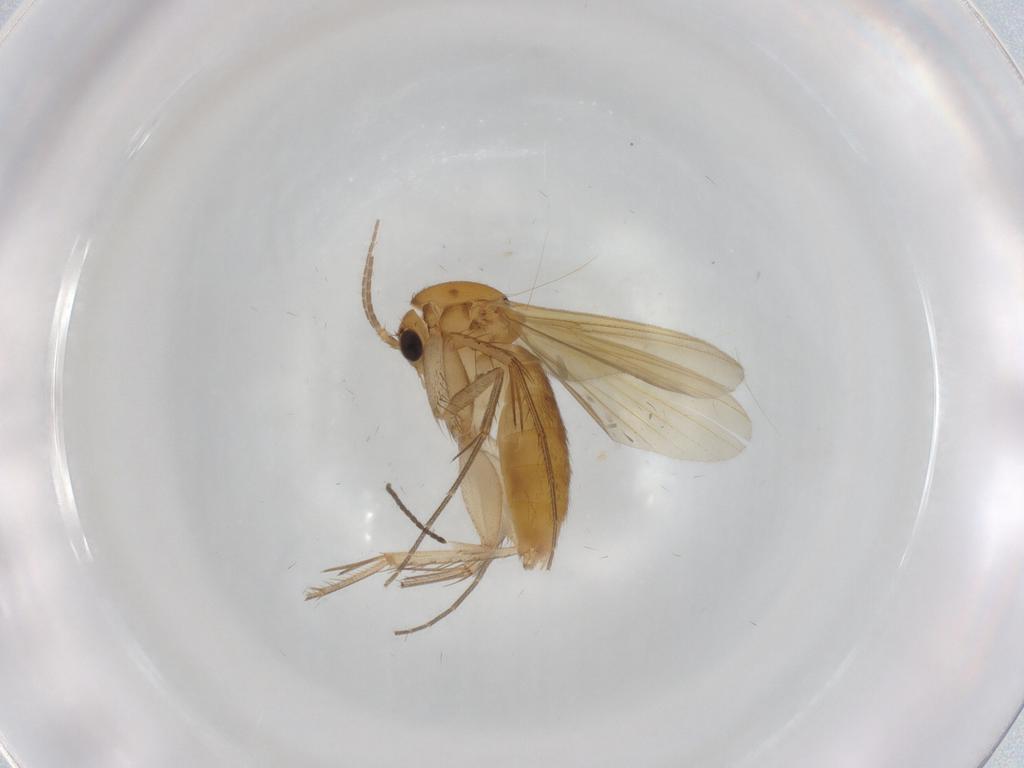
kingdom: Animalia
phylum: Arthropoda
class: Insecta
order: Diptera
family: Mycetophilidae
